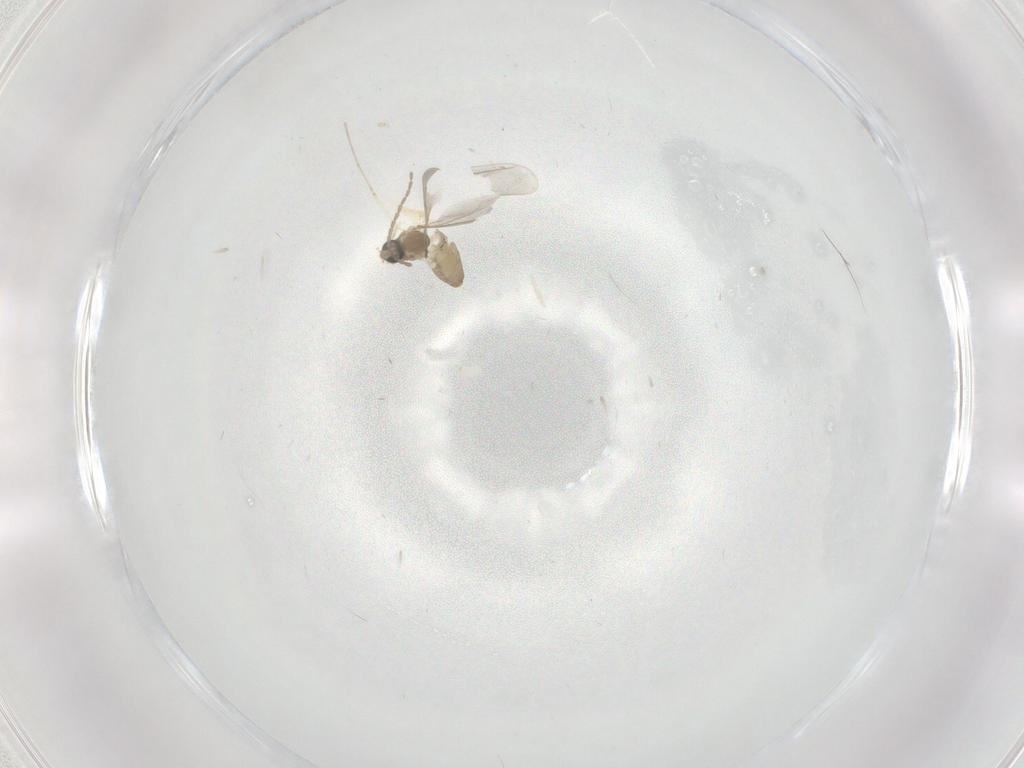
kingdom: Animalia
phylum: Arthropoda
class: Insecta
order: Diptera
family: Cecidomyiidae
